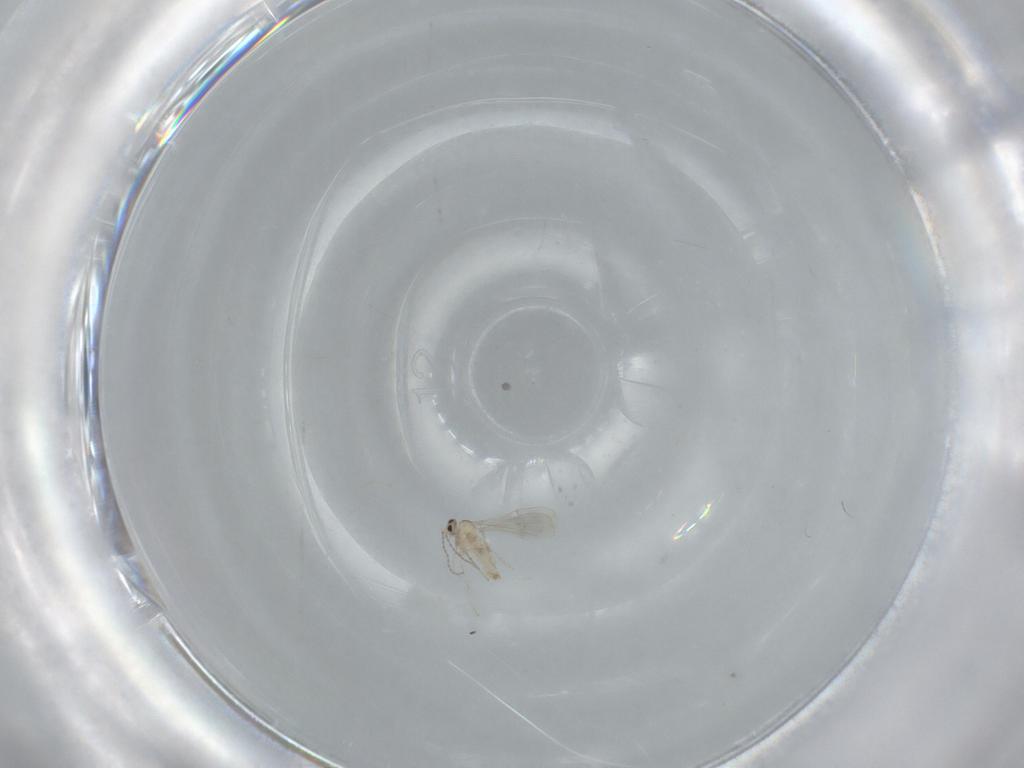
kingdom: Animalia
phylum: Arthropoda
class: Insecta
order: Diptera
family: Cecidomyiidae
